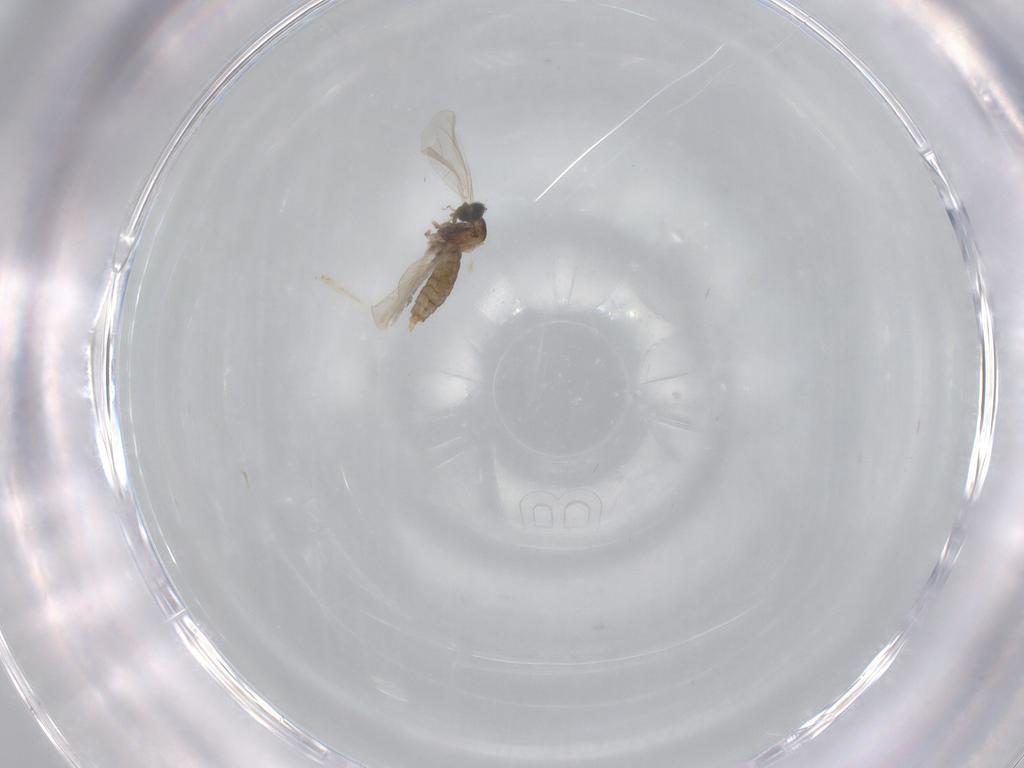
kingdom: Animalia
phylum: Arthropoda
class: Insecta
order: Diptera
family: Cecidomyiidae
